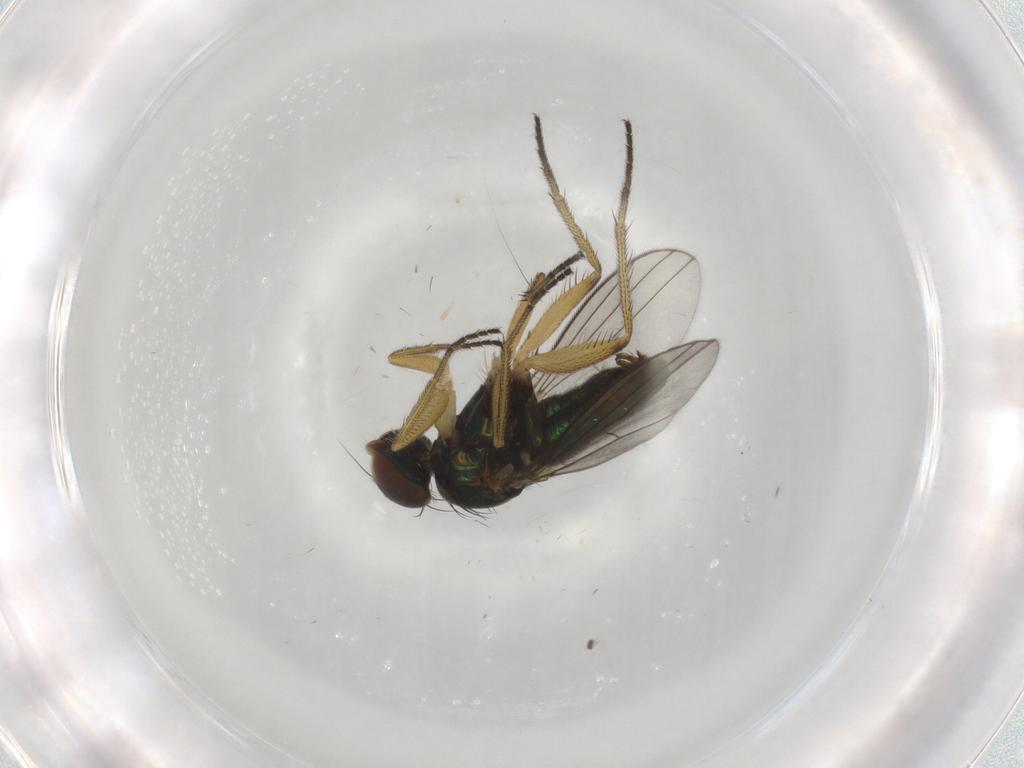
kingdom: Animalia
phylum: Arthropoda
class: Insecta
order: Diptera
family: Dolichopodidae
